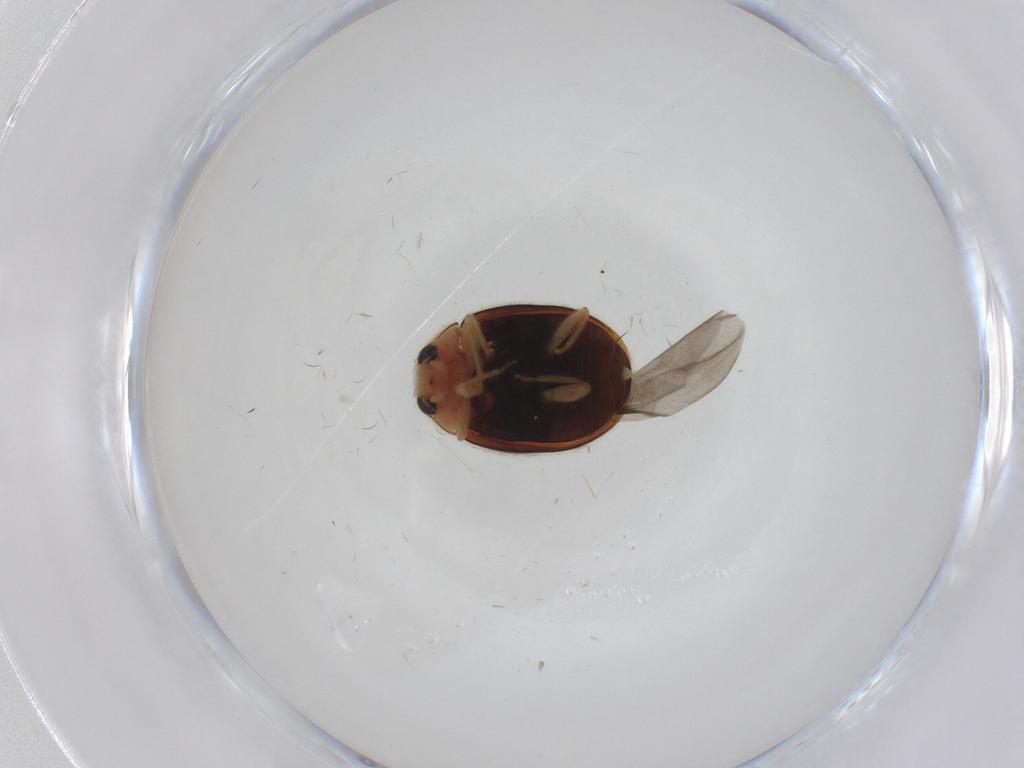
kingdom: Animalia
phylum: Arthropoda
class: Insecta
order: Coleoptera
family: Coccinellidae
